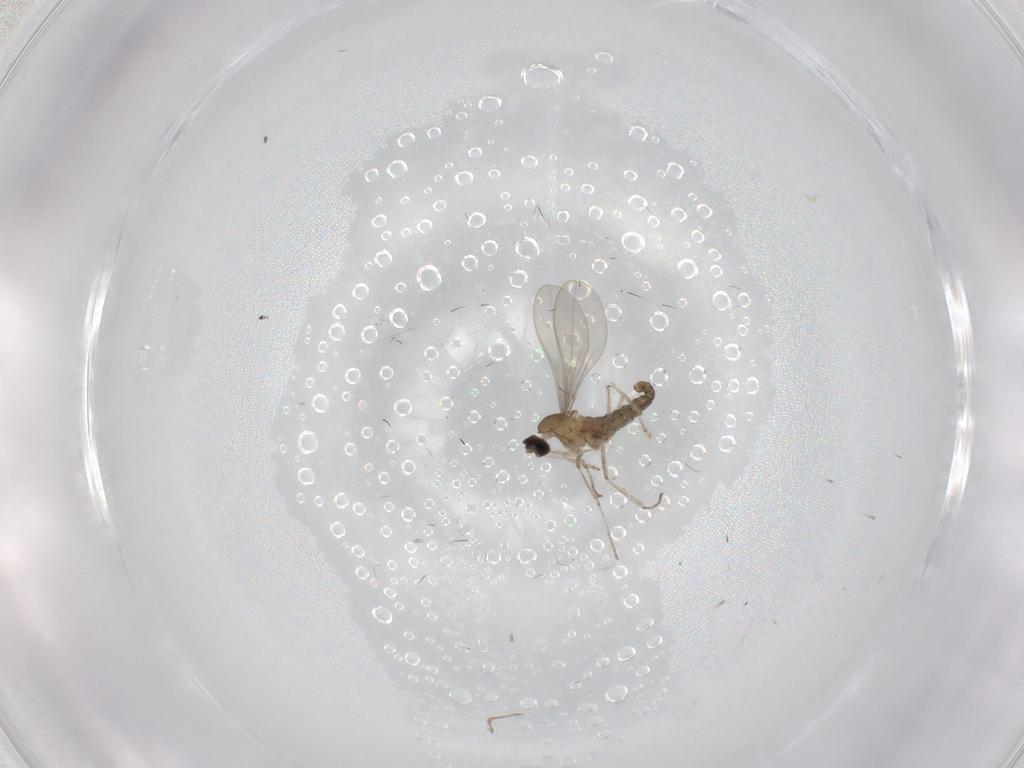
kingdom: Animalia
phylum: Arthropoda
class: Insecta
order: Diptera
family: Cecidomyiidae
